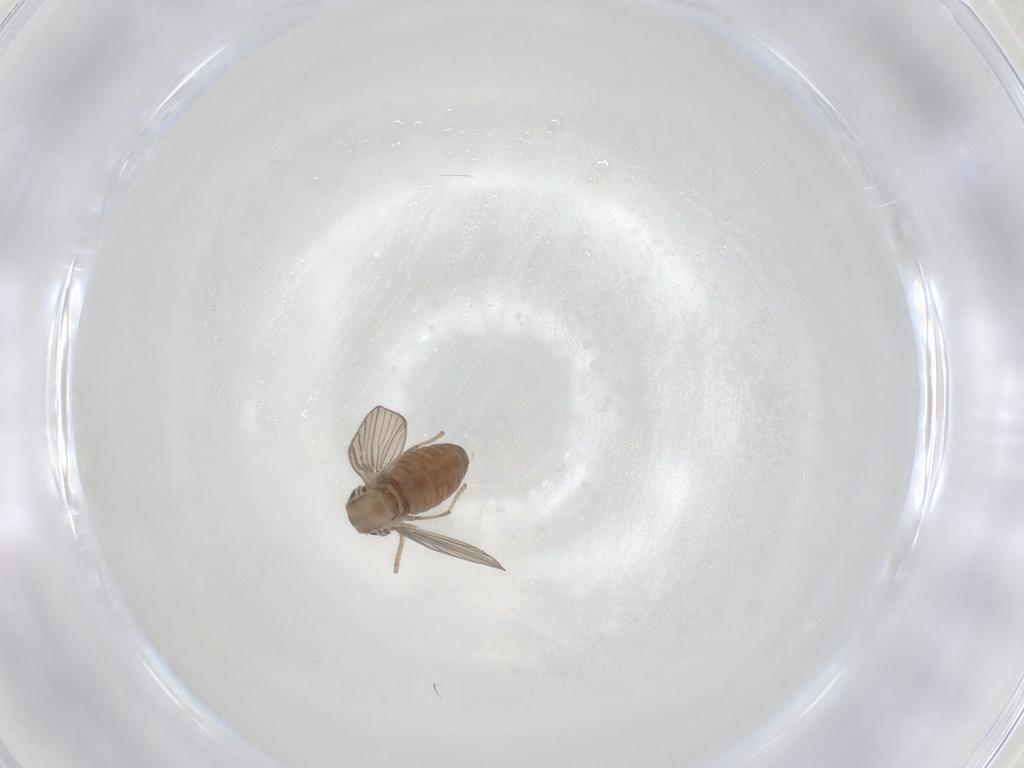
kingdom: Animalia
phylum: Arthropoda
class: Insecta
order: Diptera
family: Psychodidae
